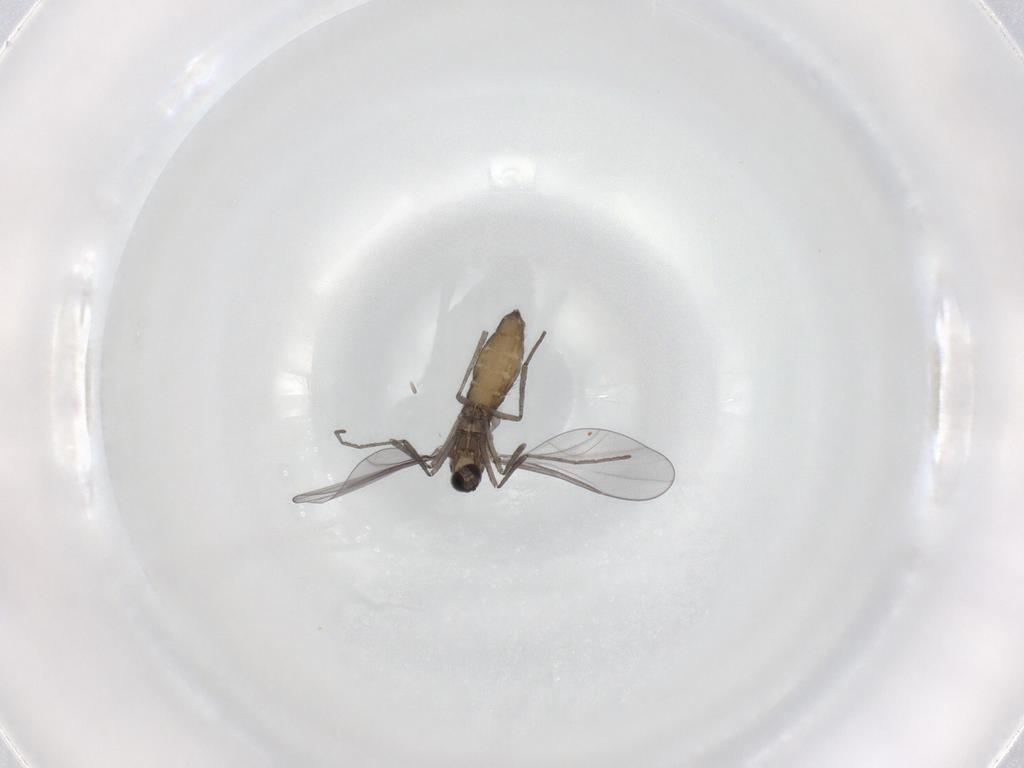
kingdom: Animalia
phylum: Arthropoda
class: Insecta
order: Diptera
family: Cecidomyiidae
